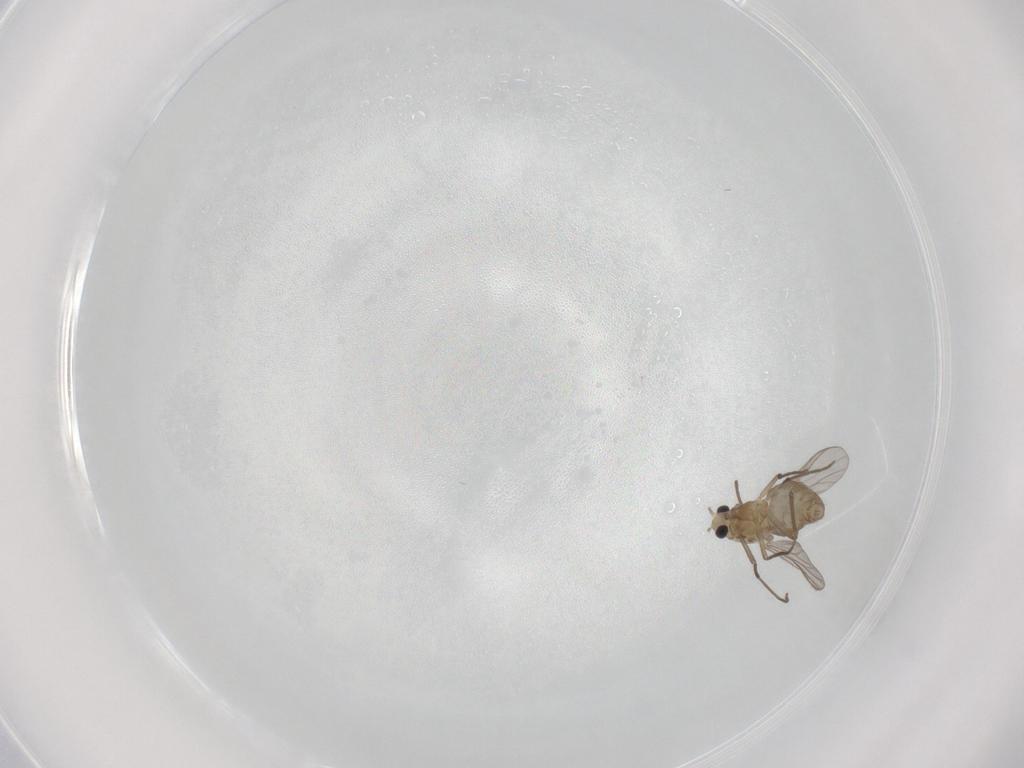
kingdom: Animalia
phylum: Arthropoda
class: Insecta
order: Diptera
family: Chironomidae
